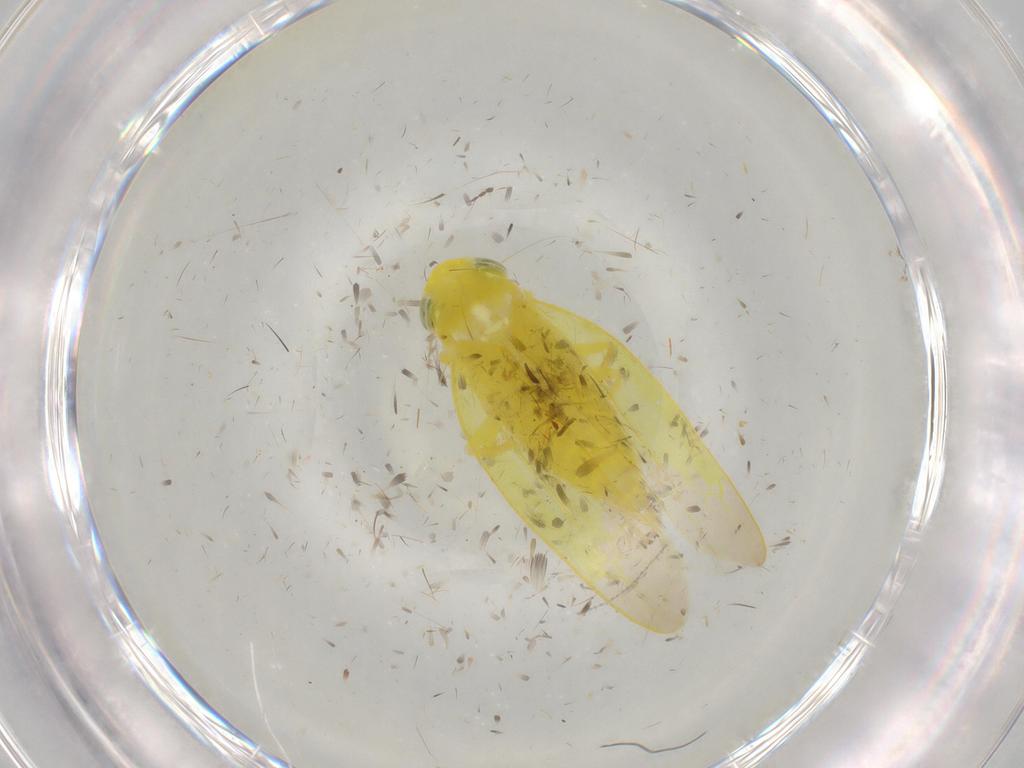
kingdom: Animalia
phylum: Arthropoda
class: Insecta
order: Hemiptera
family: Cicadellidae
